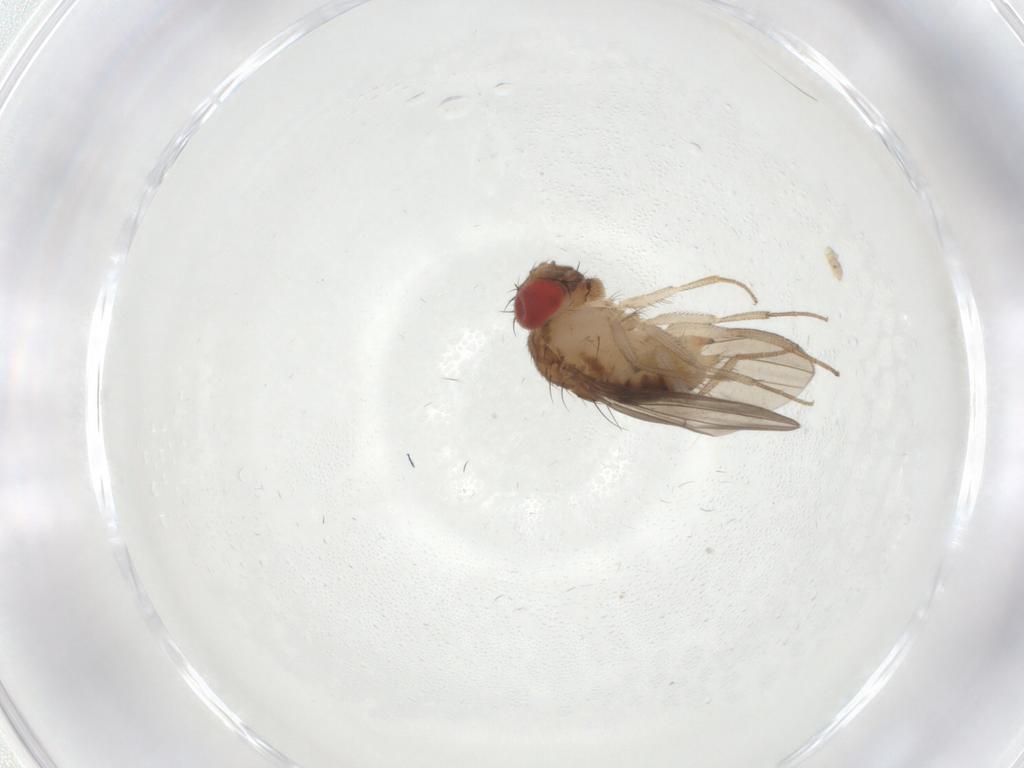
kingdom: Animalia
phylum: Arthropoda
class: Insecta
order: Diptera
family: Drosophilidae
